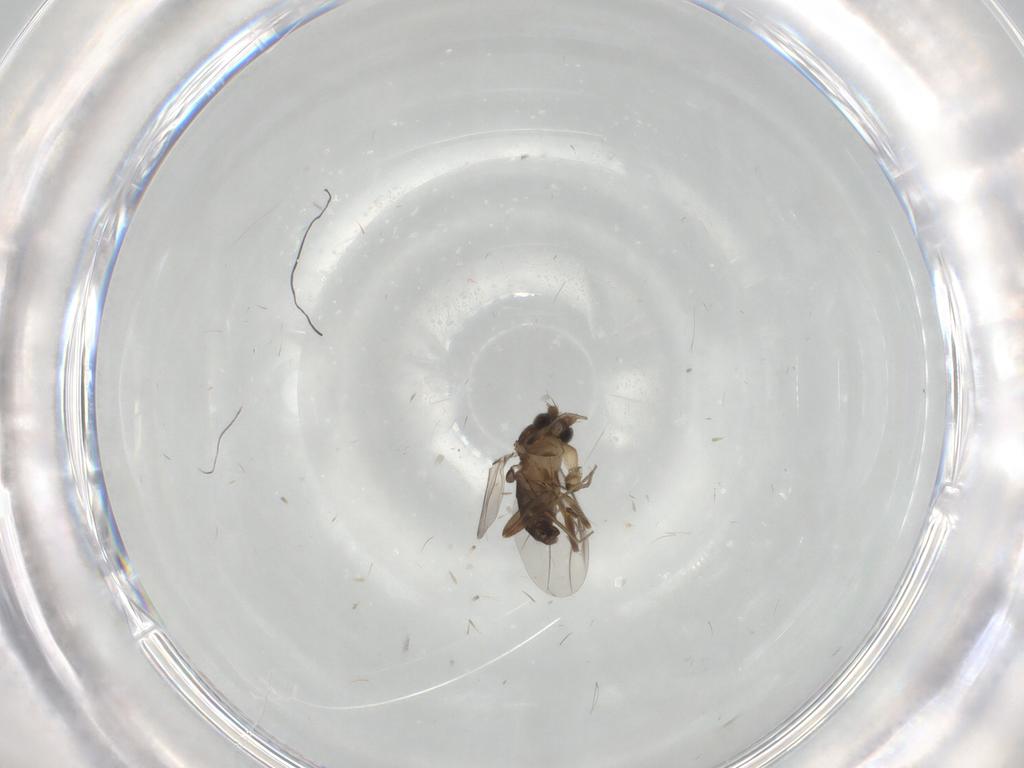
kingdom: Animalia
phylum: Arthropoda
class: Insecta
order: Diptera
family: Phoridae
